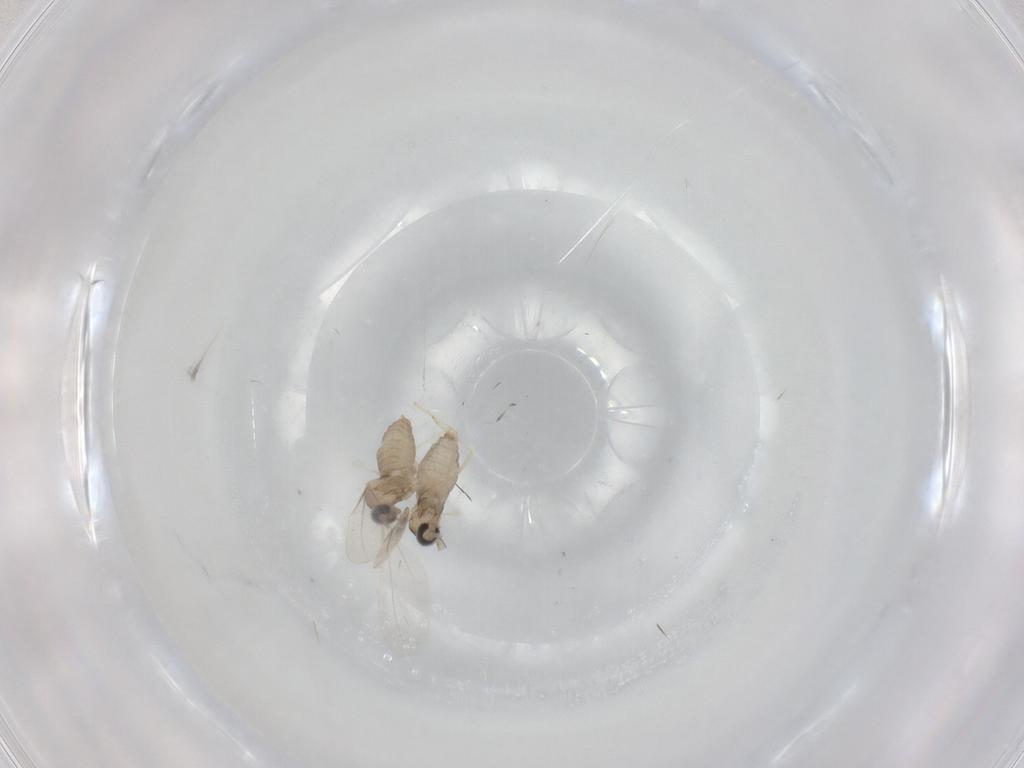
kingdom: Animalia
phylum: Arthropoda
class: Insecta
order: Diptera
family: Cecidomyiidae
